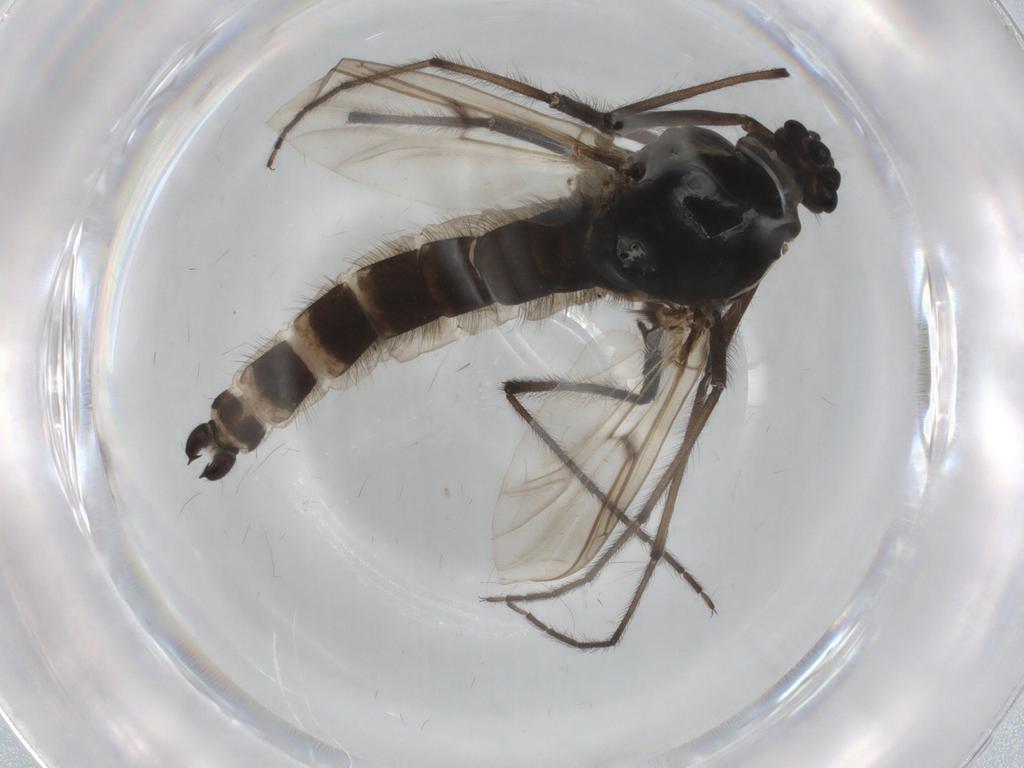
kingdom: Animalia
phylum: Arthropoda
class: Insecta
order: Diptera
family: Chironomidae
